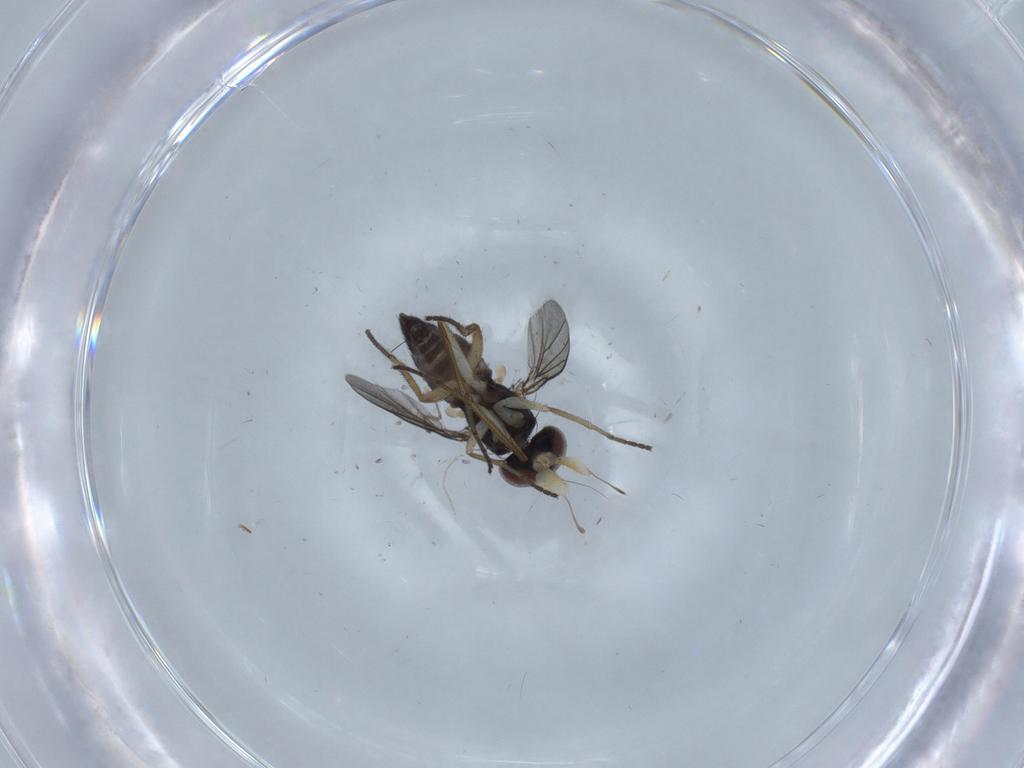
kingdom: Animalia
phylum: Arthropoda
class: Insecta
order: Diptera
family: Dolichopodidae
